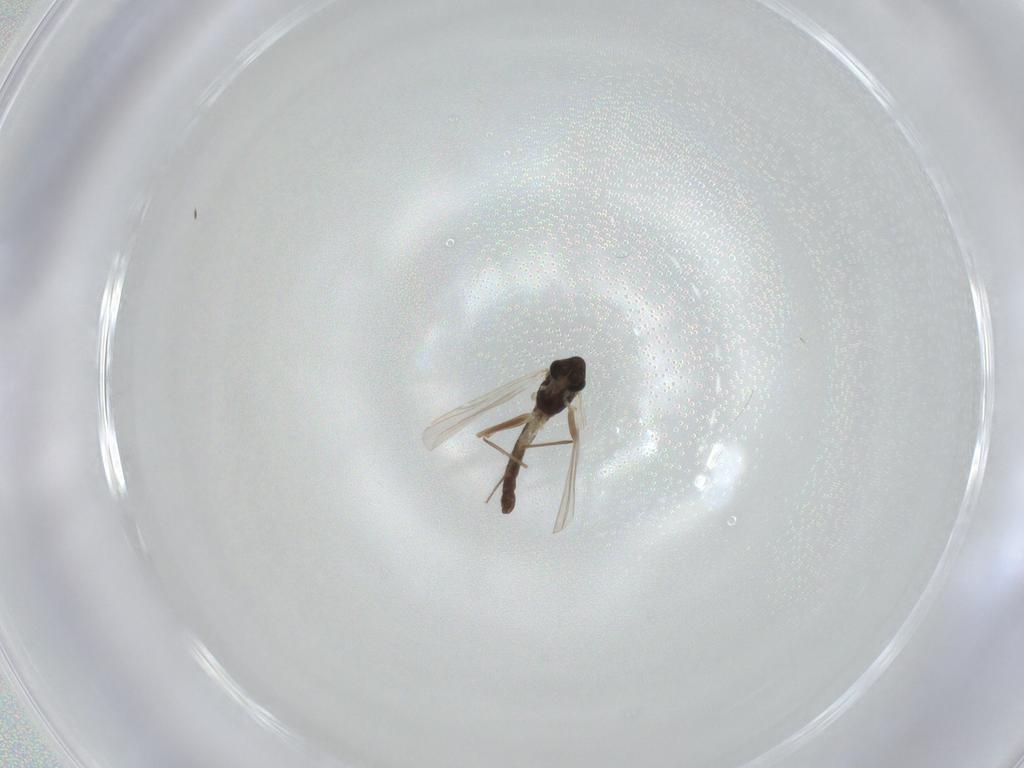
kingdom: Animalia
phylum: Arthropoda
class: Insecta
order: Diptera
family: Chironomidae
